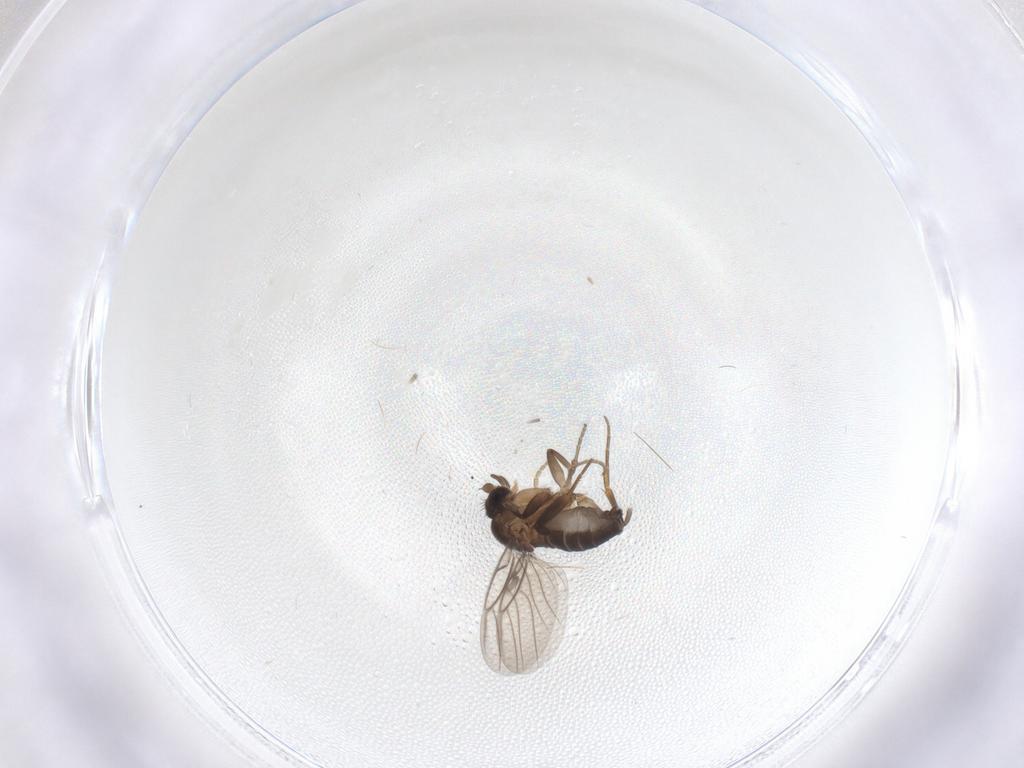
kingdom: Animalia
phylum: Arthropoda
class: Insecta
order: Diptera
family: Phoridae
